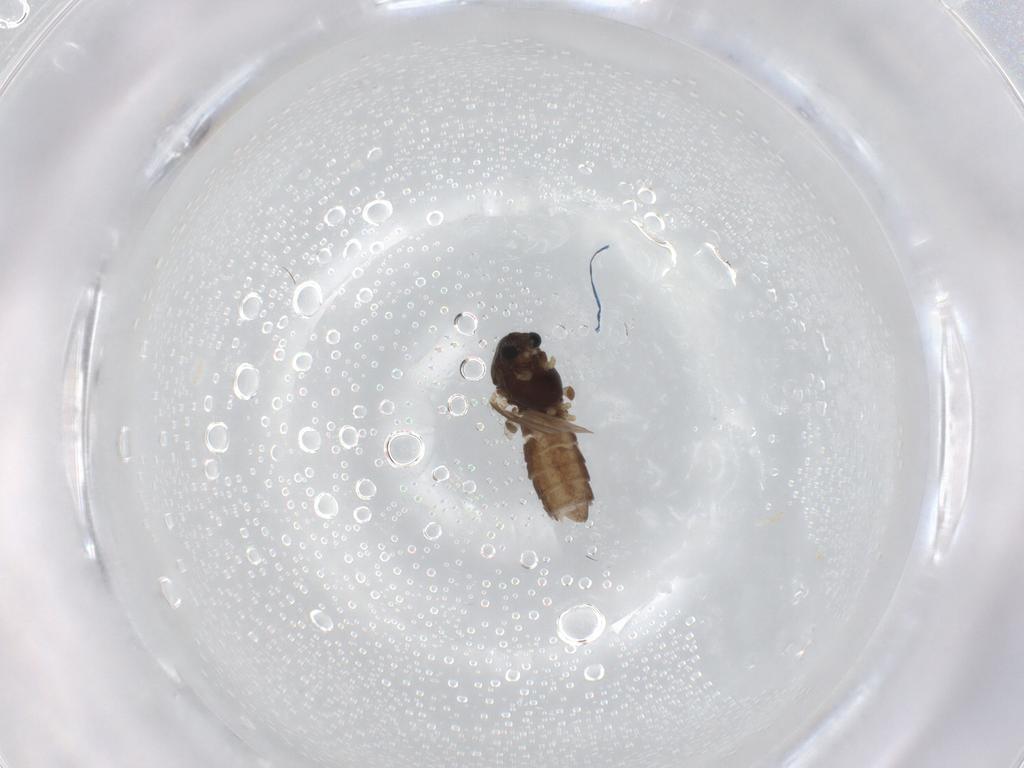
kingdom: Animalia
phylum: Arthropoda
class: Insecta
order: Diptera
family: Chironomidae
